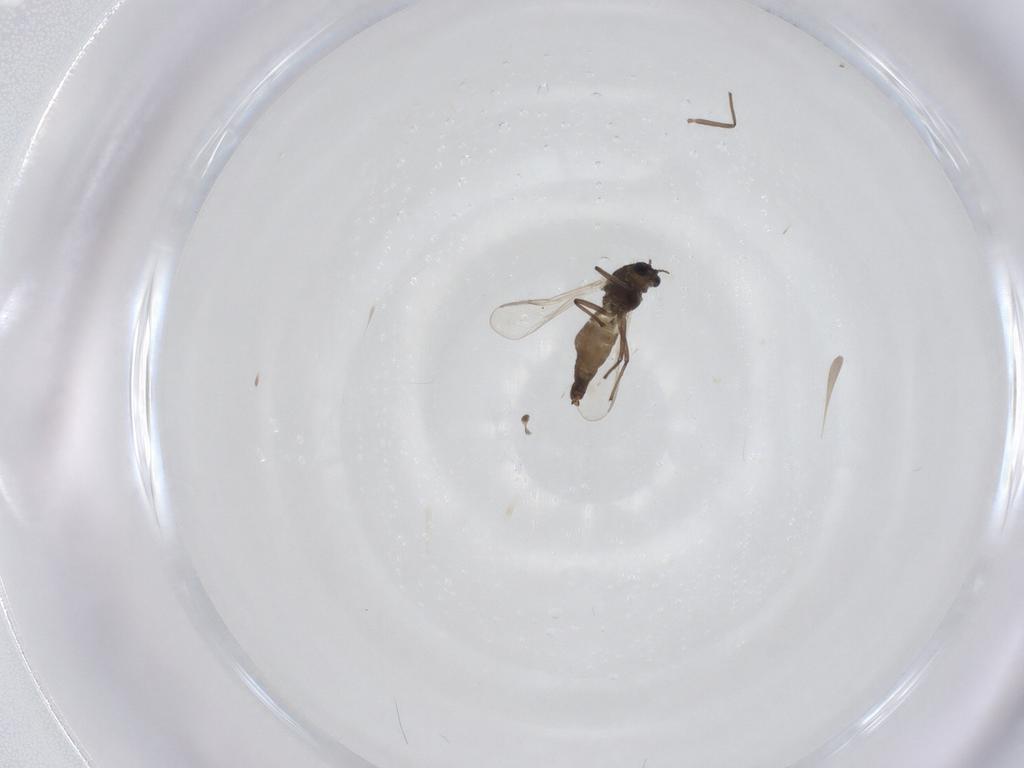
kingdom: Animalia
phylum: Arthropoda
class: Insecta
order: Diptera
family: Chironomidae
